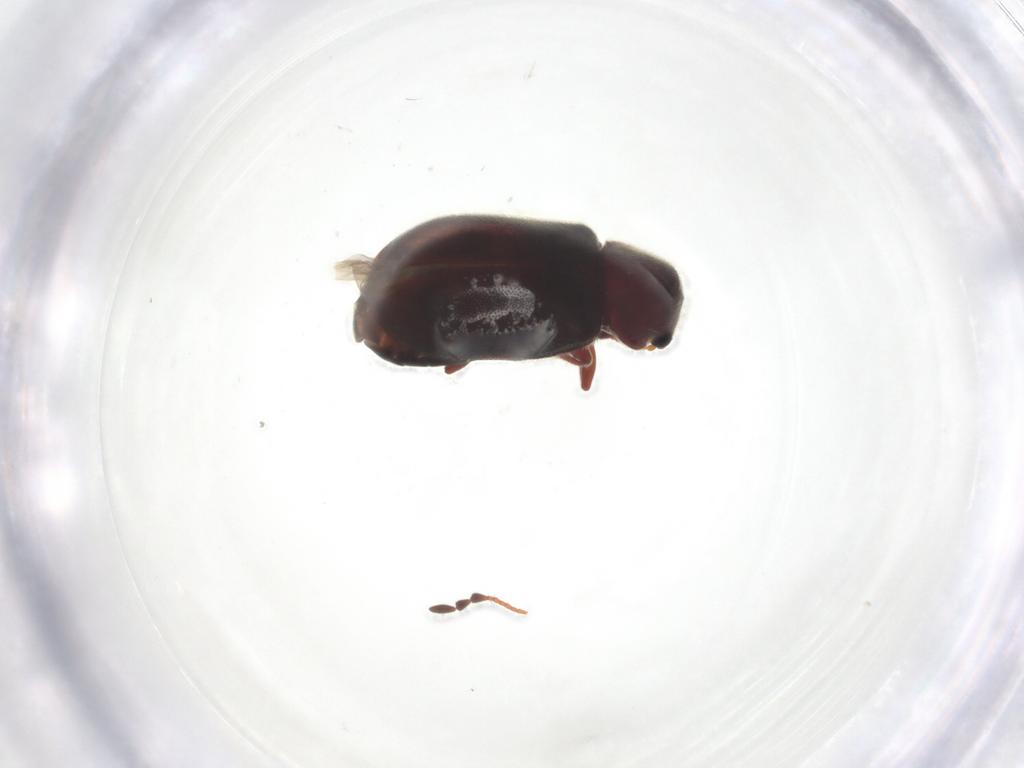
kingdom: Animalia
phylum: Arthropoda
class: Insecta
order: Coleoptera
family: Ptinidae
